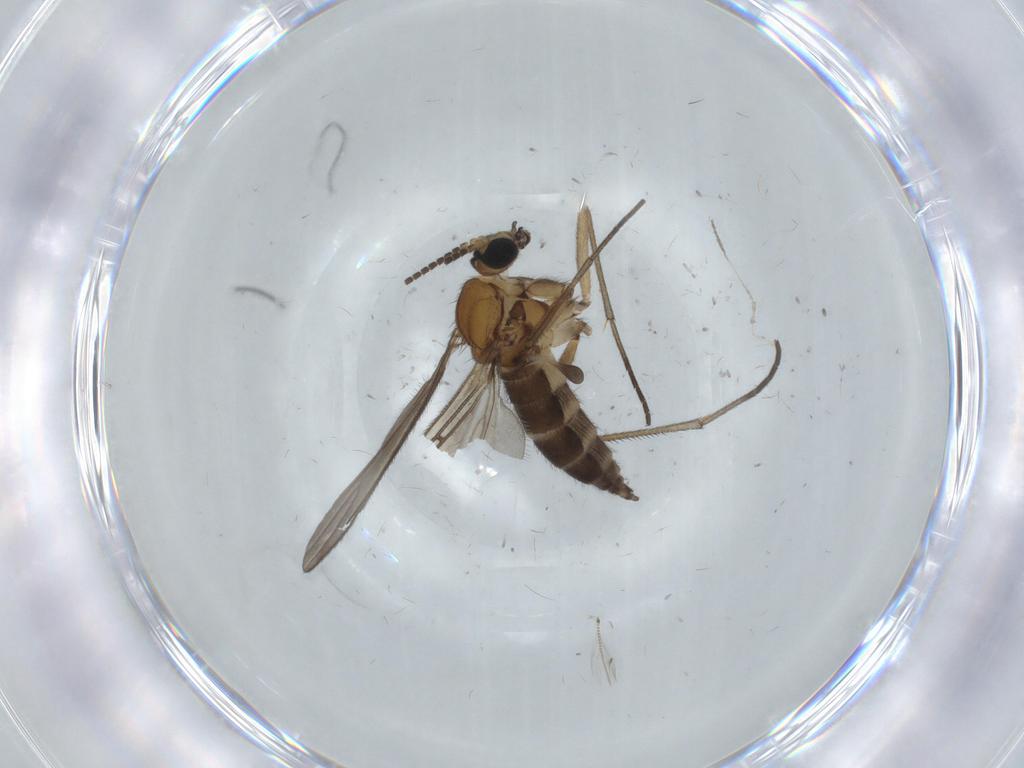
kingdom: Animalia
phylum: Arthropoda
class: Insecta
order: Diptera
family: Sciaridae
